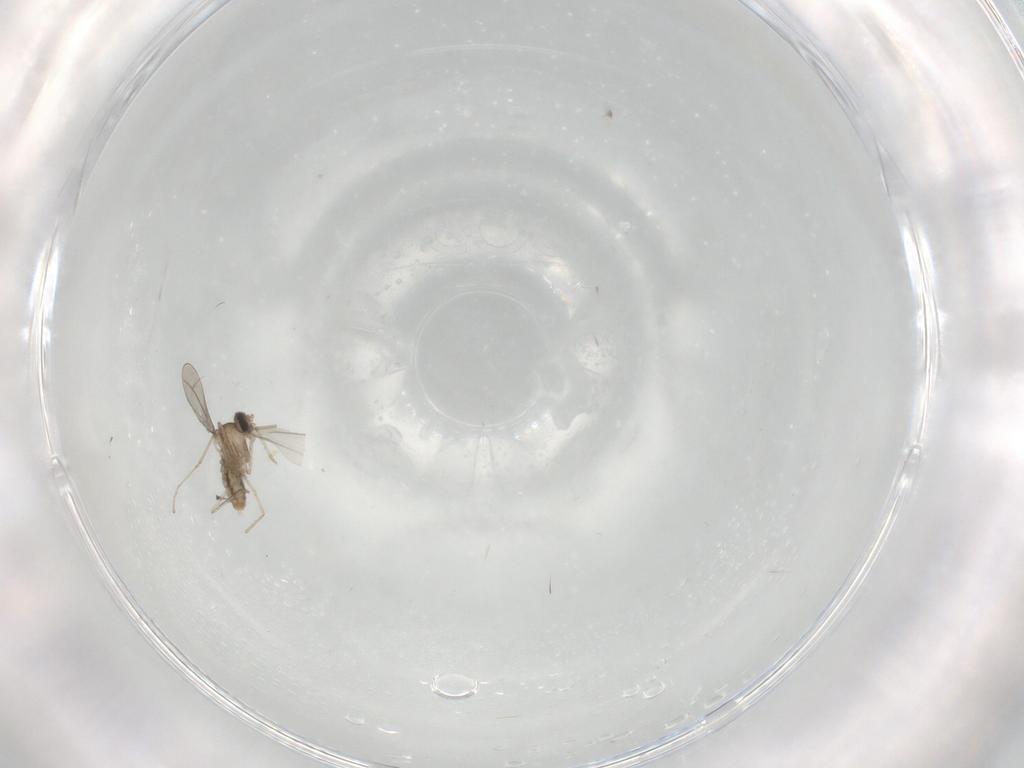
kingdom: Animalia
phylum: Arthropoda
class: Insecta
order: Diptera
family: Cecidomyiidae
